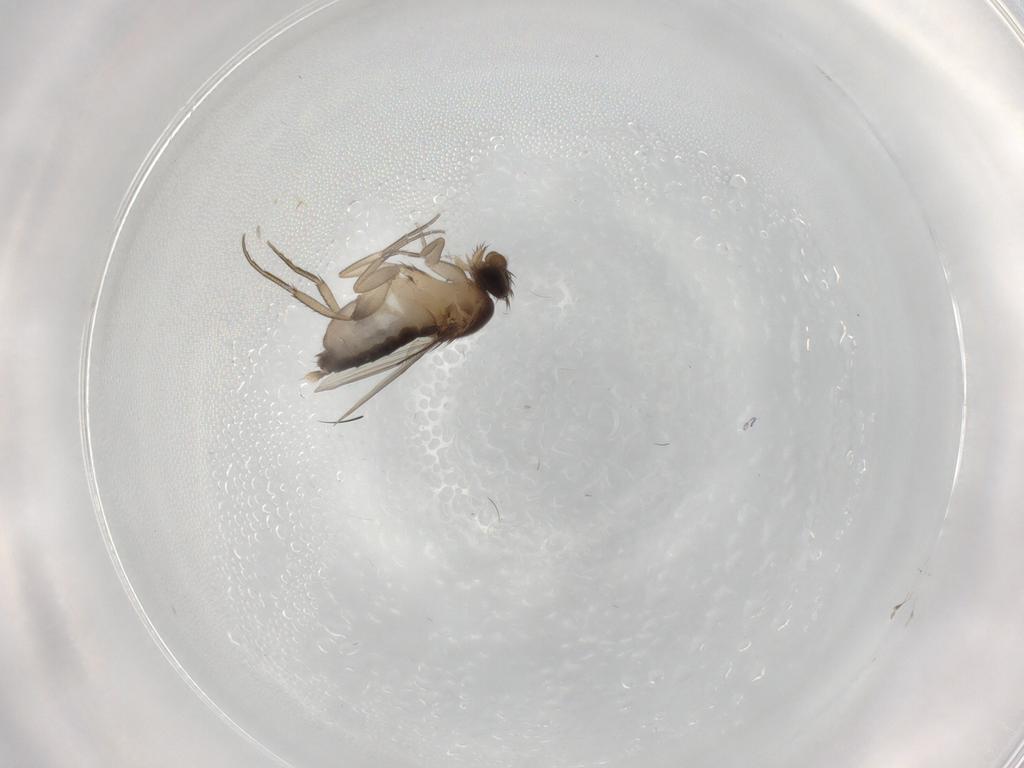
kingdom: Animalia
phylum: Arthropoda
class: Insecta
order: Diptera
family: Phoridae
